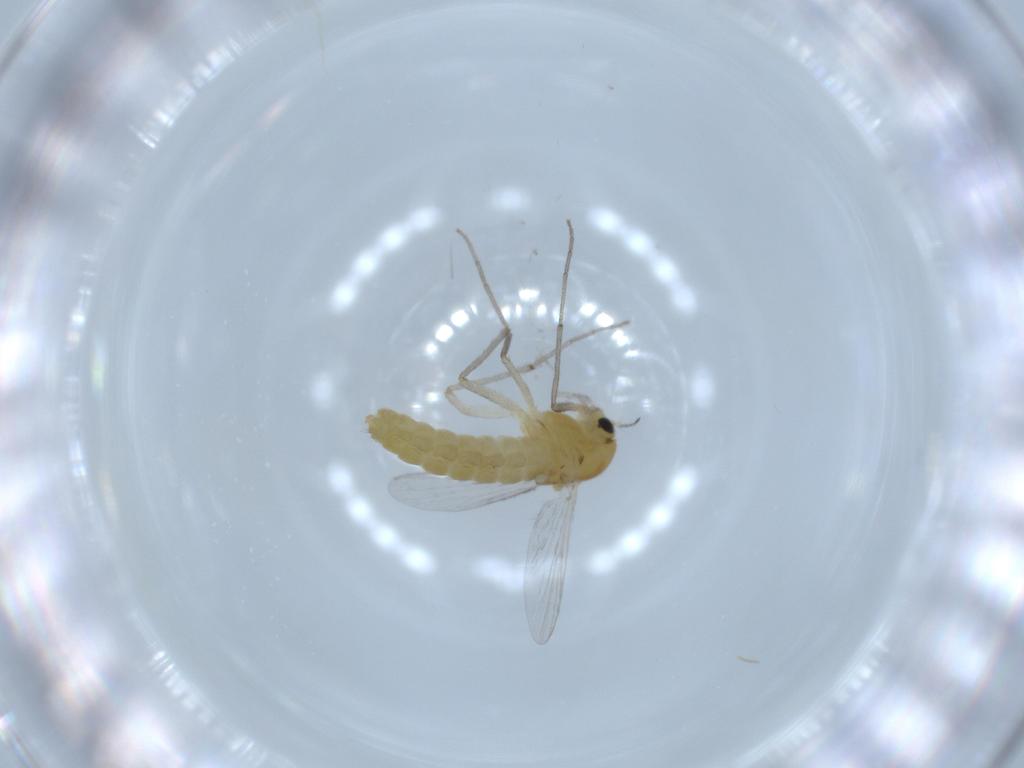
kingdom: Animalia
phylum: Arthropoda
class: Insecta
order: Diptera
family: Chironomidae
